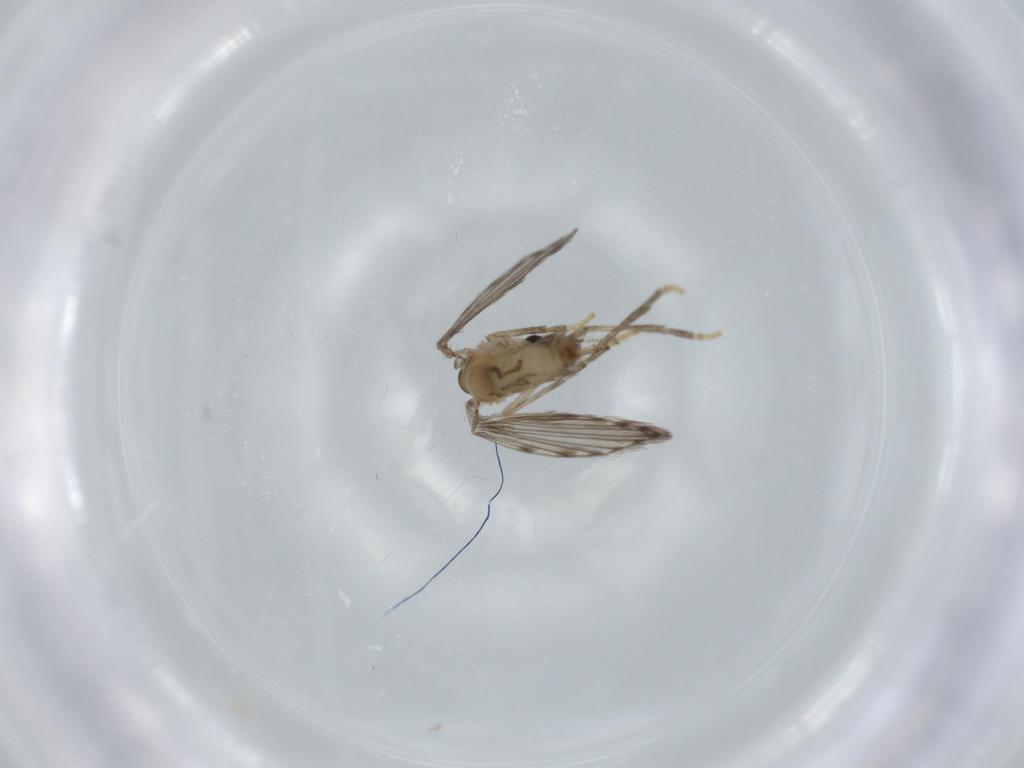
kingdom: Animalia
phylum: Arthropoda
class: Insecta
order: Diptera
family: Psychodidae
